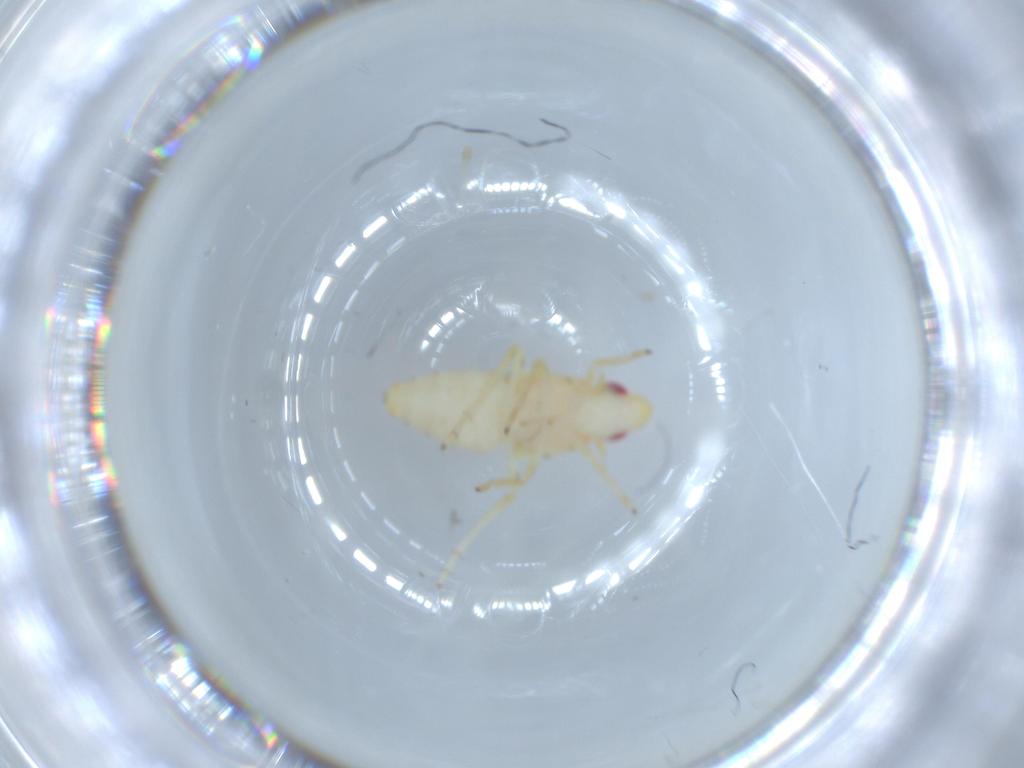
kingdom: Animalia
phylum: Arthropoda
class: Insecta
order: Hemiptera
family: Tropiduchidae
